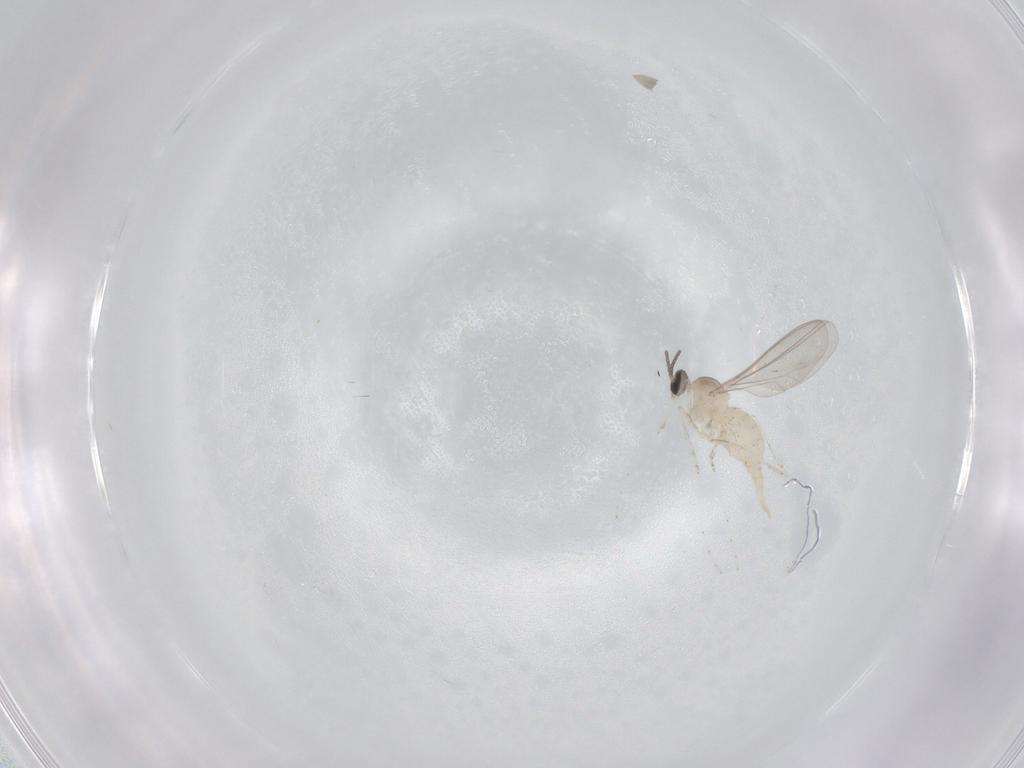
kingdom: Animalia
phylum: Arthropoda
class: Insecta
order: Diptera
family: Cecidomyiidae
